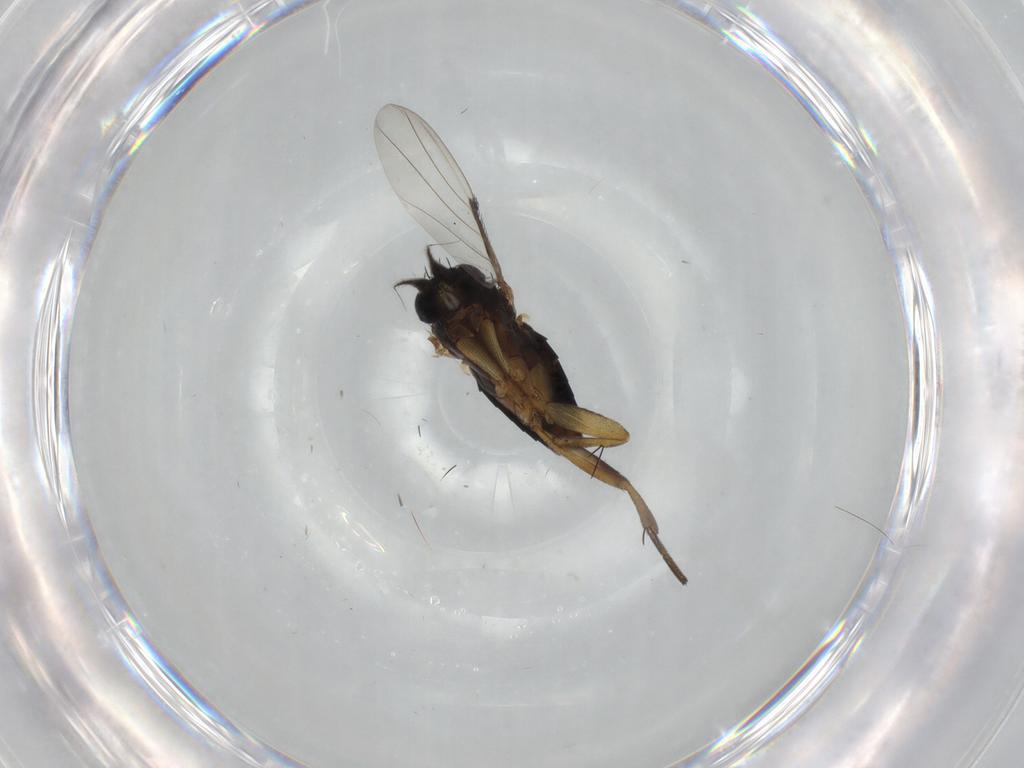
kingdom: Animalia
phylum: Arthropoda
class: Insecta
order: Diptera
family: Phoridae
